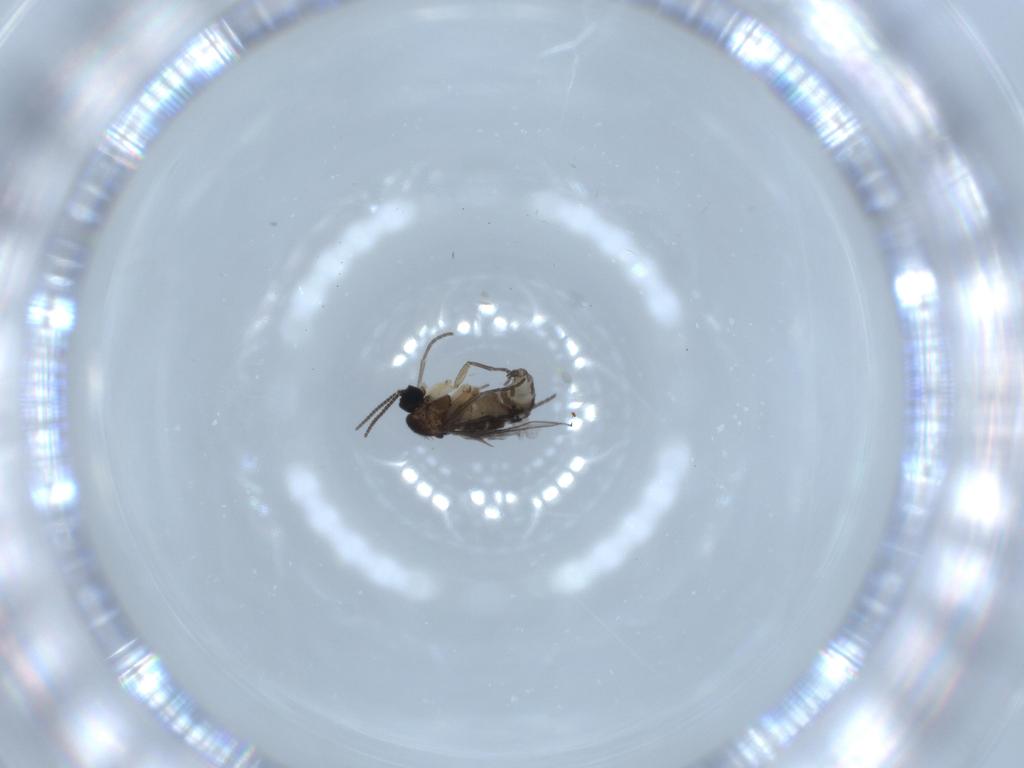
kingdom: Animalia
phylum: Arthropoda
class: Insecta
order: Diptera
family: Sciaridae
